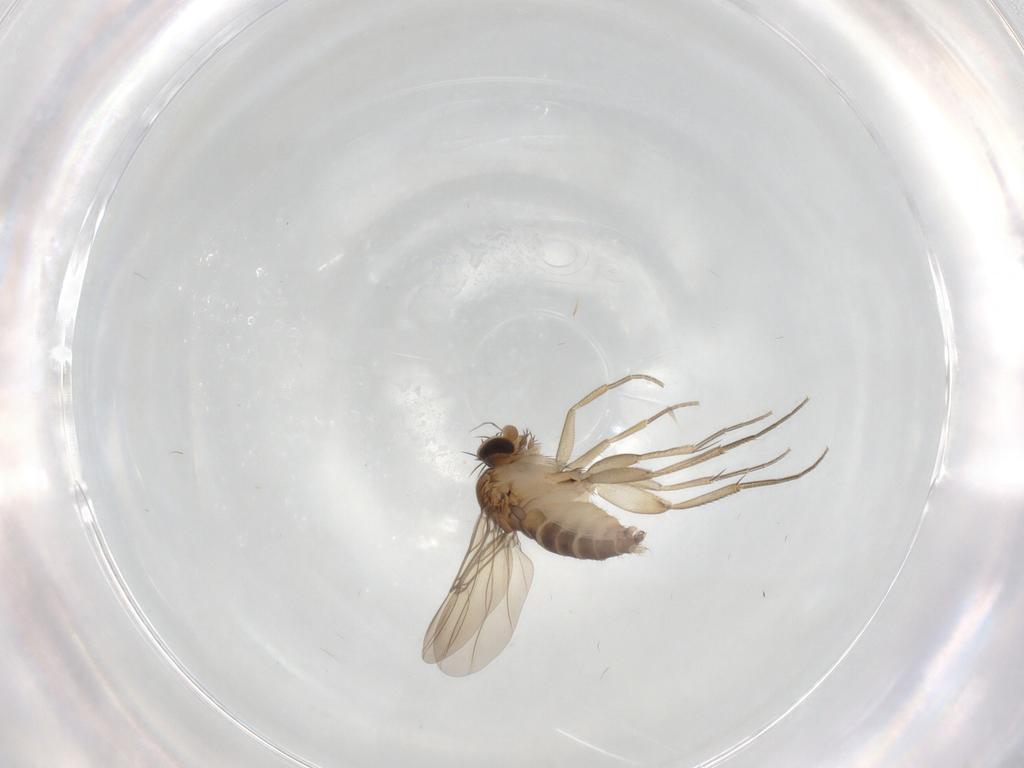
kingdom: Animalia
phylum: Arthropoda
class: Insecta
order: Diptera
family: Phoridae
